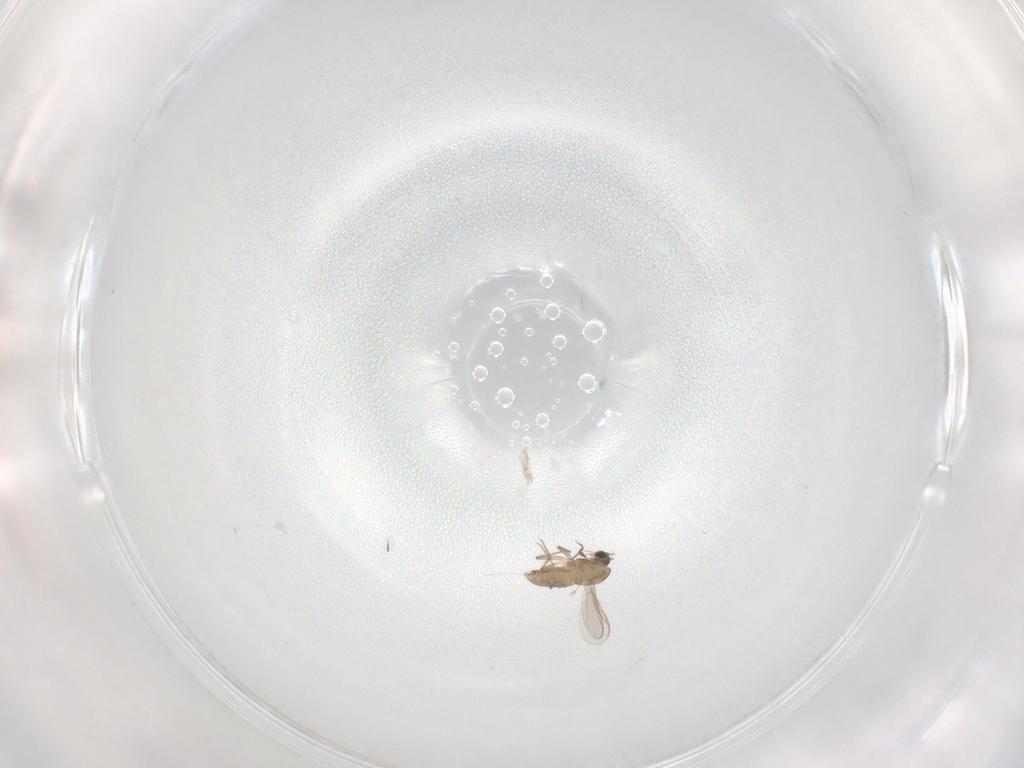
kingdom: Animalia
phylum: Arthropoda
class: Insecta
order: Diptera
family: Chironomidae
